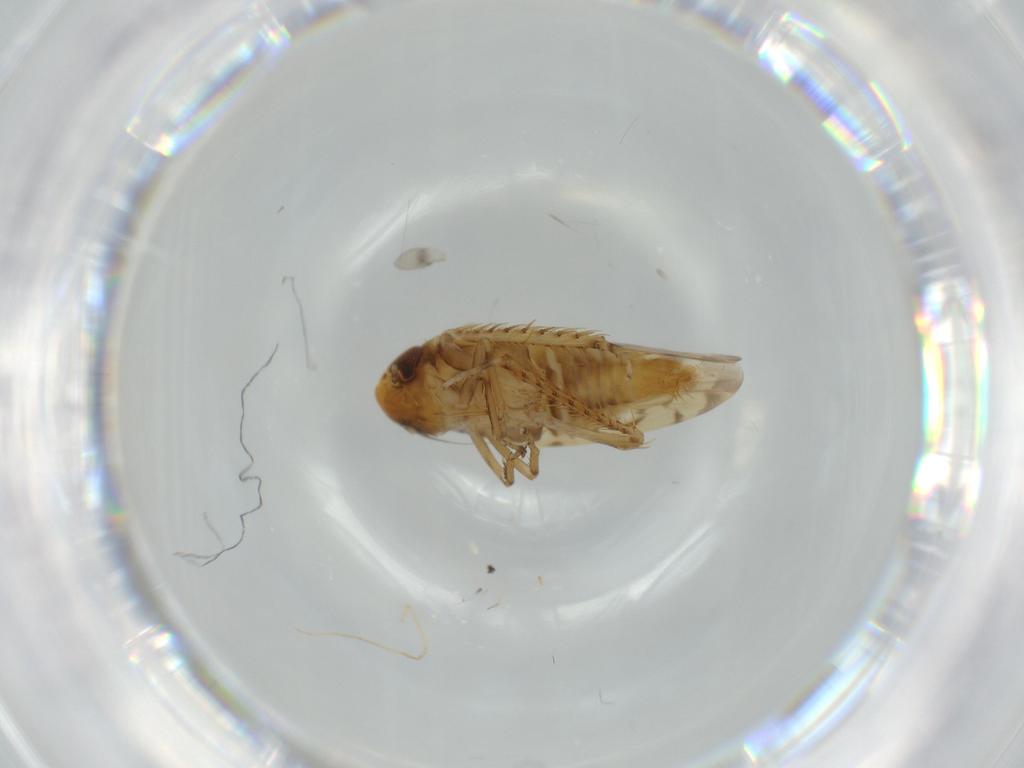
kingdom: Animalia
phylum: Arthropoda
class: Insecta
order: Hemiptera
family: Cicadellidae
